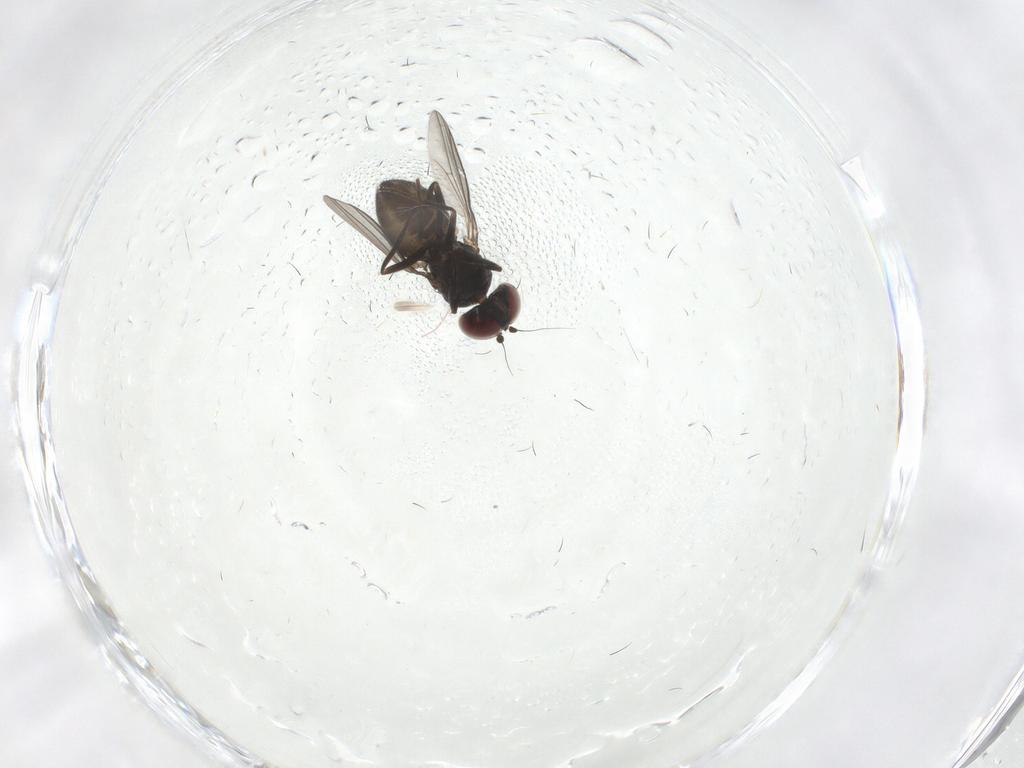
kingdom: Animalia
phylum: Arthropoda
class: Insecta
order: Diptera
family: Dolichopodidae
